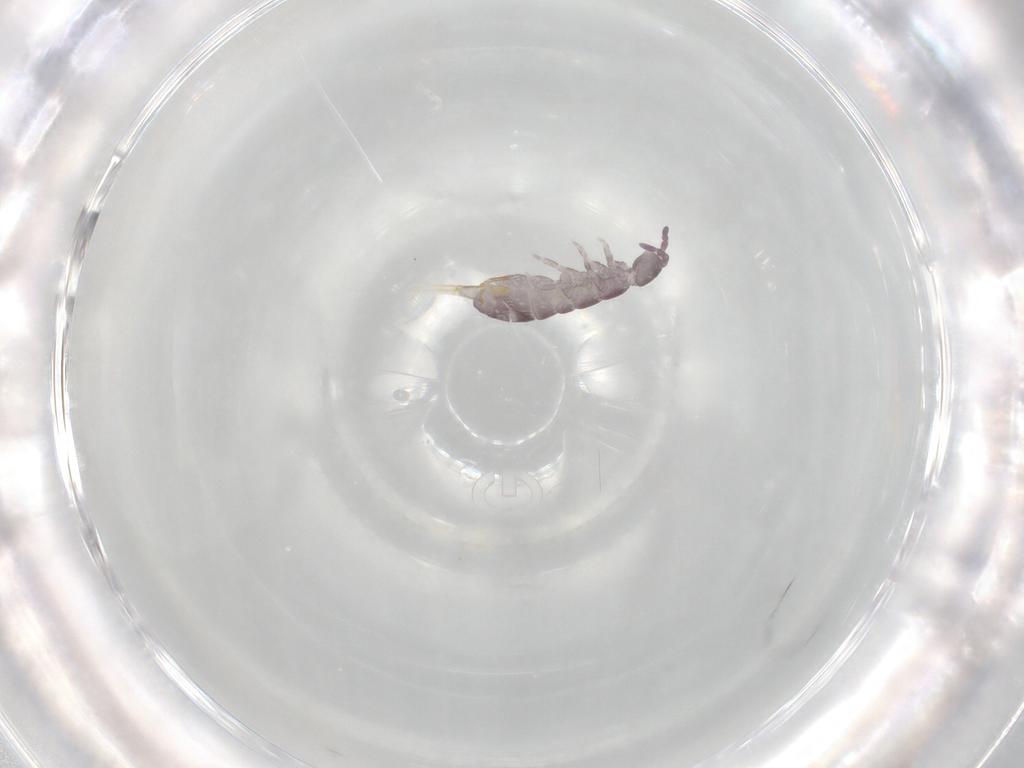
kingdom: Animalia
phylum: Arthropoda
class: Collembola
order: Entomobryomorpha
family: Isotomidae
